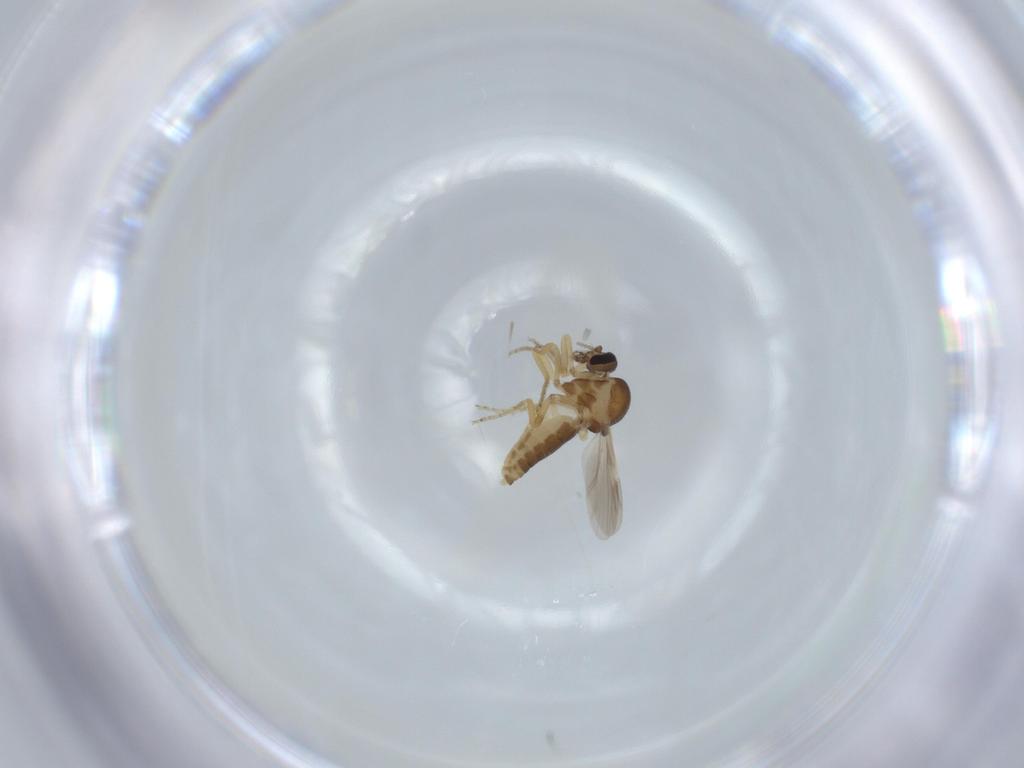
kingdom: Animalia
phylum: Arthropoda
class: Insecta
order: Diptera
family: Ceratopogonidae
